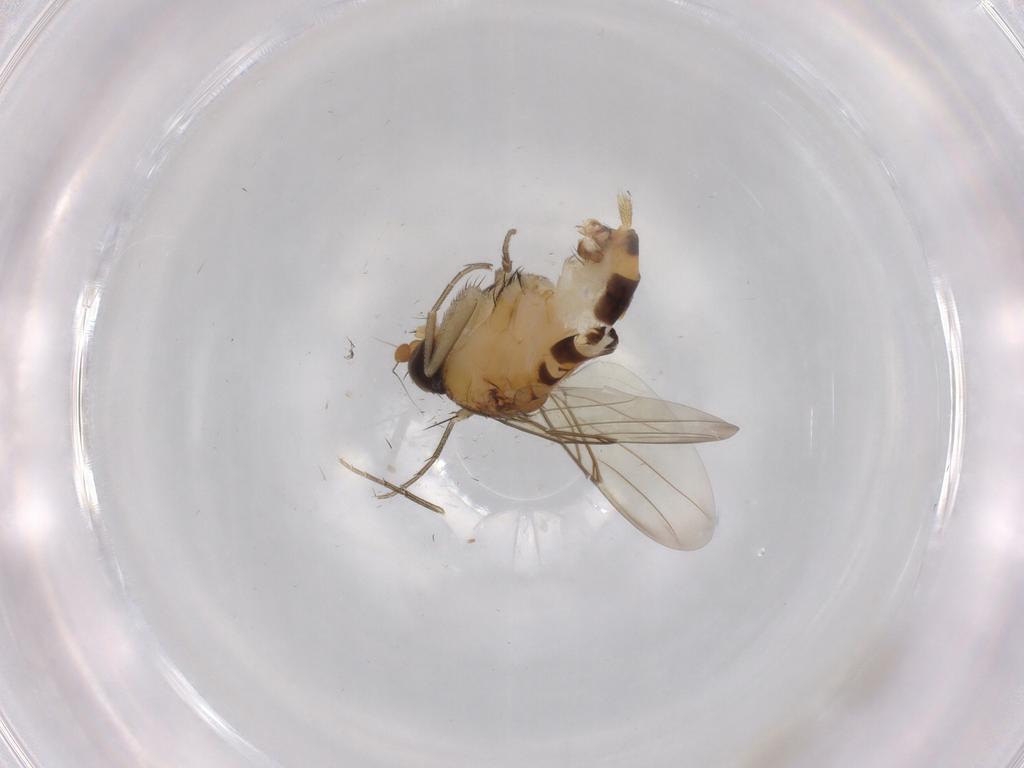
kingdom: Animalia
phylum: Arthropoda
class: Insecta
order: Diptera
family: Phoridae
